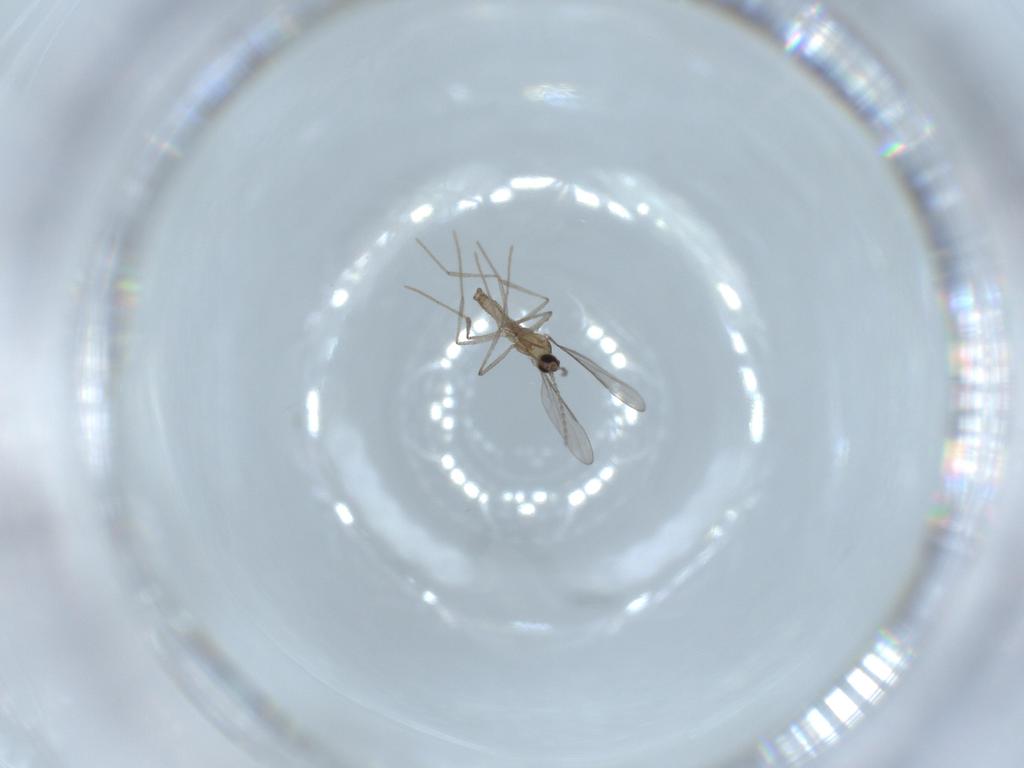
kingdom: Animalia
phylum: Arthropoda
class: Insecta
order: Diptera
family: Cecidomyiidae
